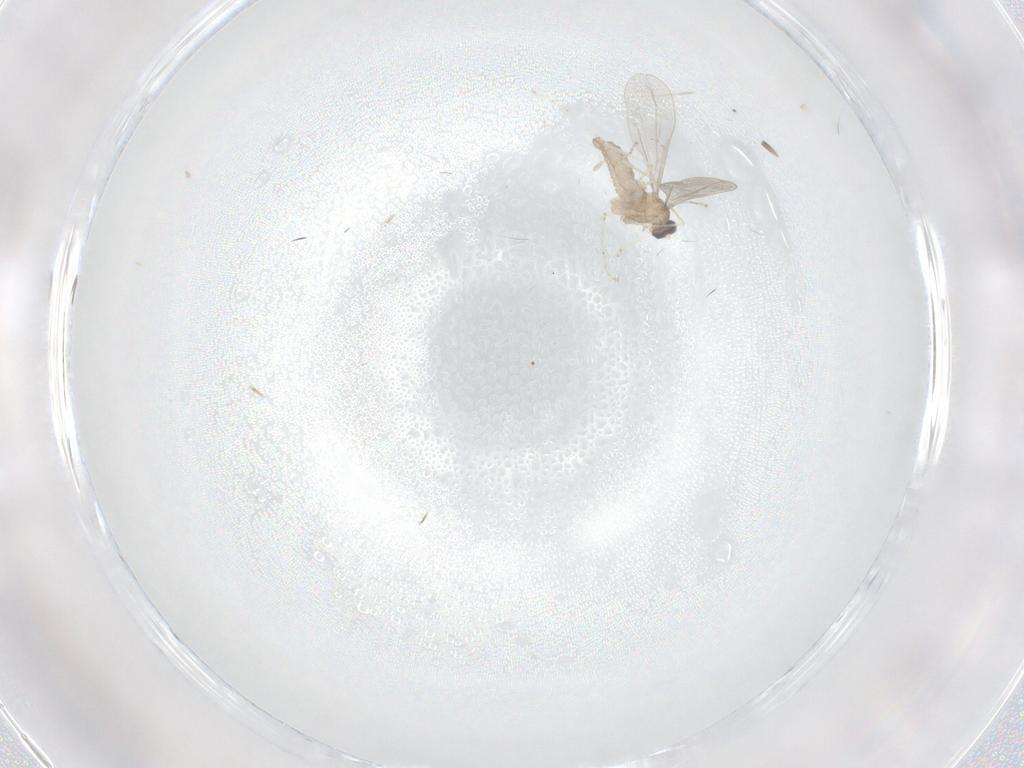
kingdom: Animalia
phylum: Arthropoda
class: Insecta
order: Diptera
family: Cecidomyiidae
